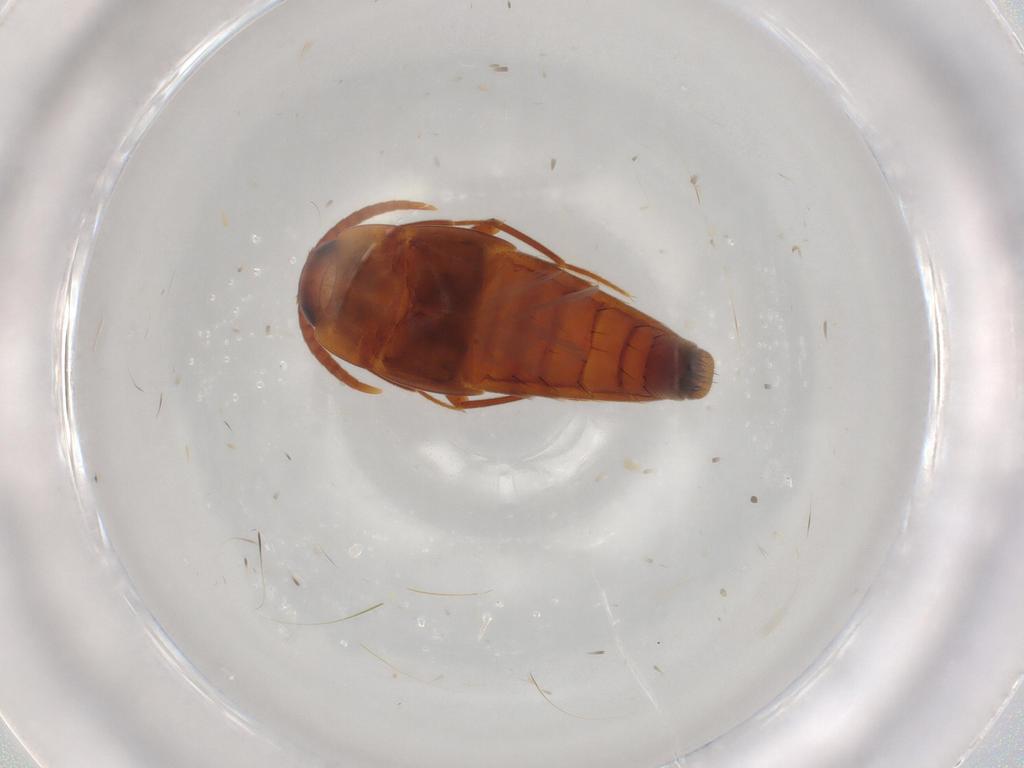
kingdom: Animalia
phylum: Arthropoda
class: Insecta
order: Coleoptera
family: Staphylinidae
